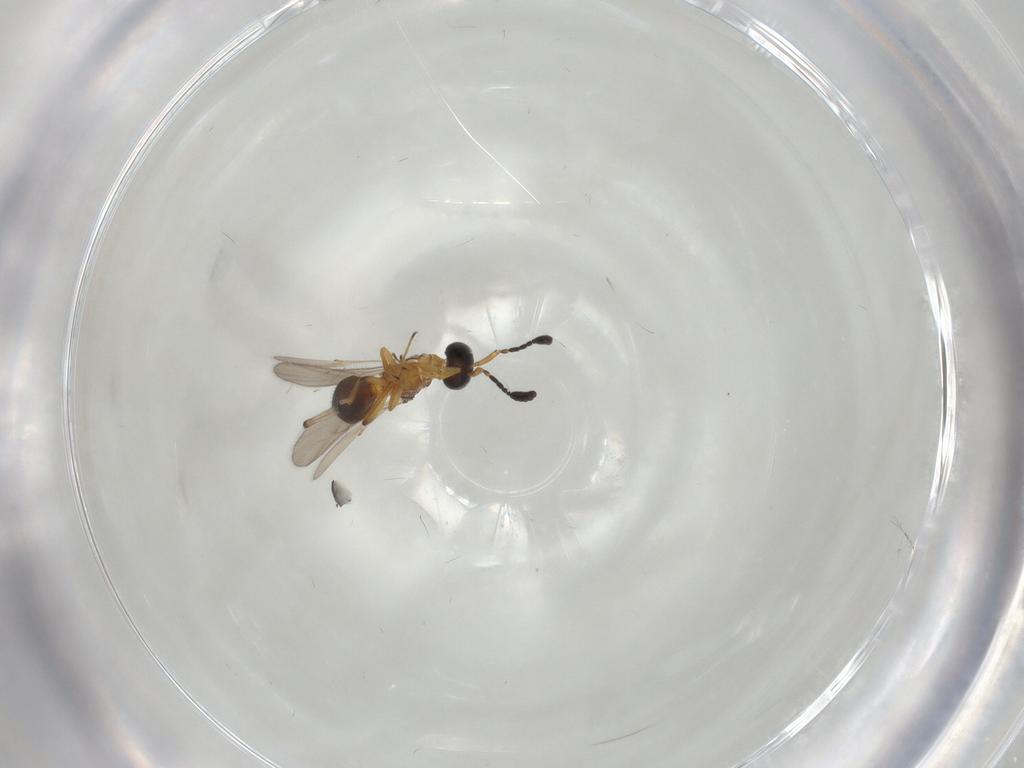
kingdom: Animalia
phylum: Arthropoda
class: Insecta
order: Hymenoptera
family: Scelionidae
